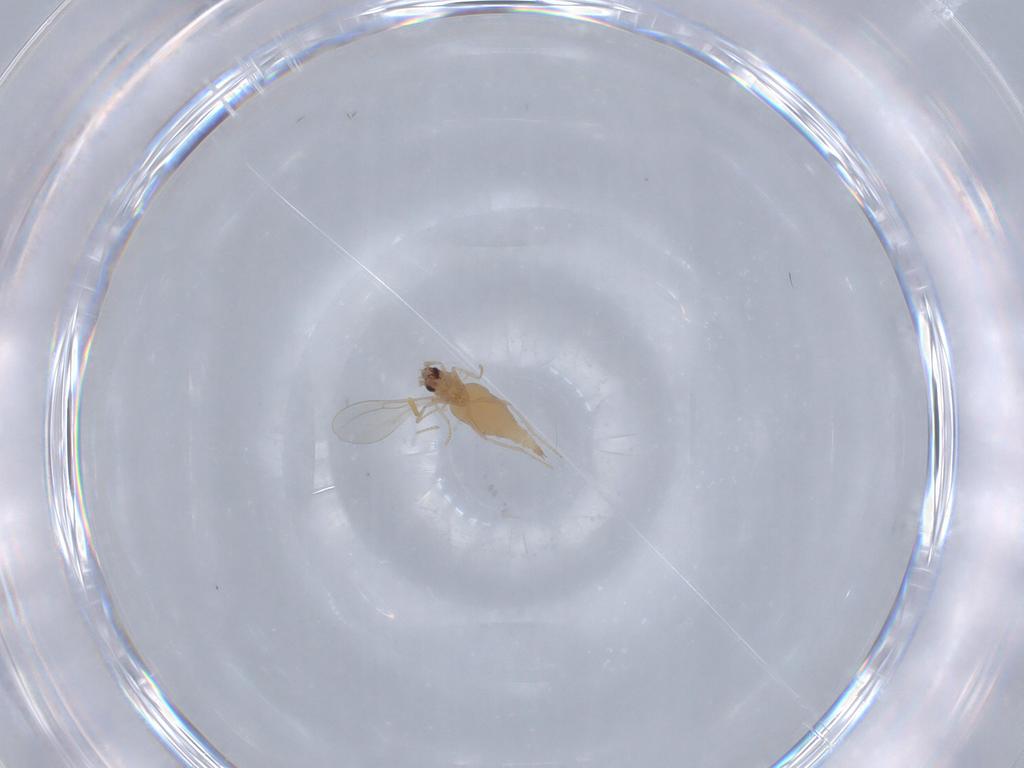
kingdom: Animalia
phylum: Arthropoda
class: Insecta
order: Diptera
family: Cecidomyiidae
